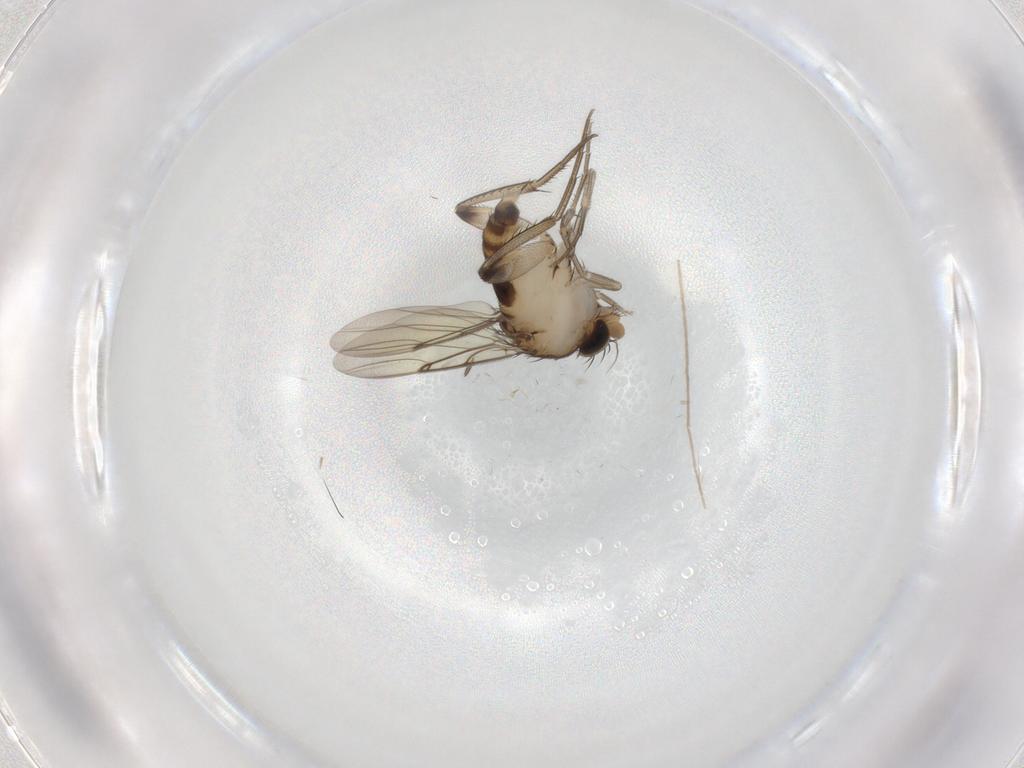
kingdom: Animalia
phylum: Arthropoda
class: Insecta
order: Diptera
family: Phoridae
